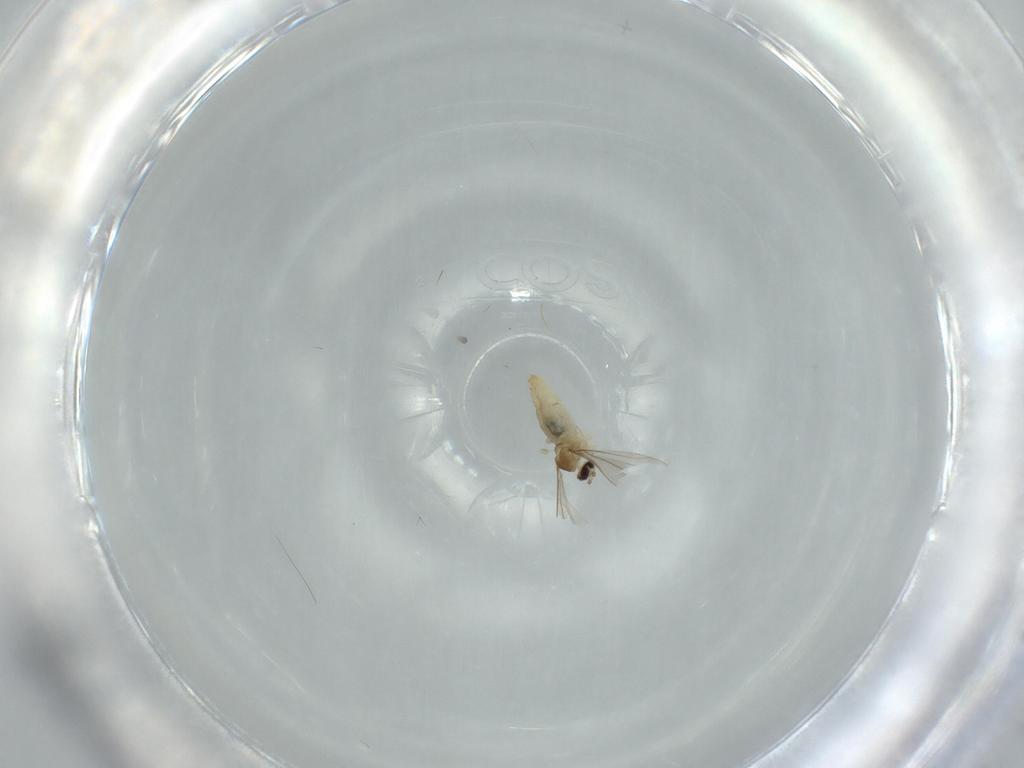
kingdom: Animalia
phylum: Arthropoda
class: Insecta
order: Diptera
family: Cecidomyiidae
